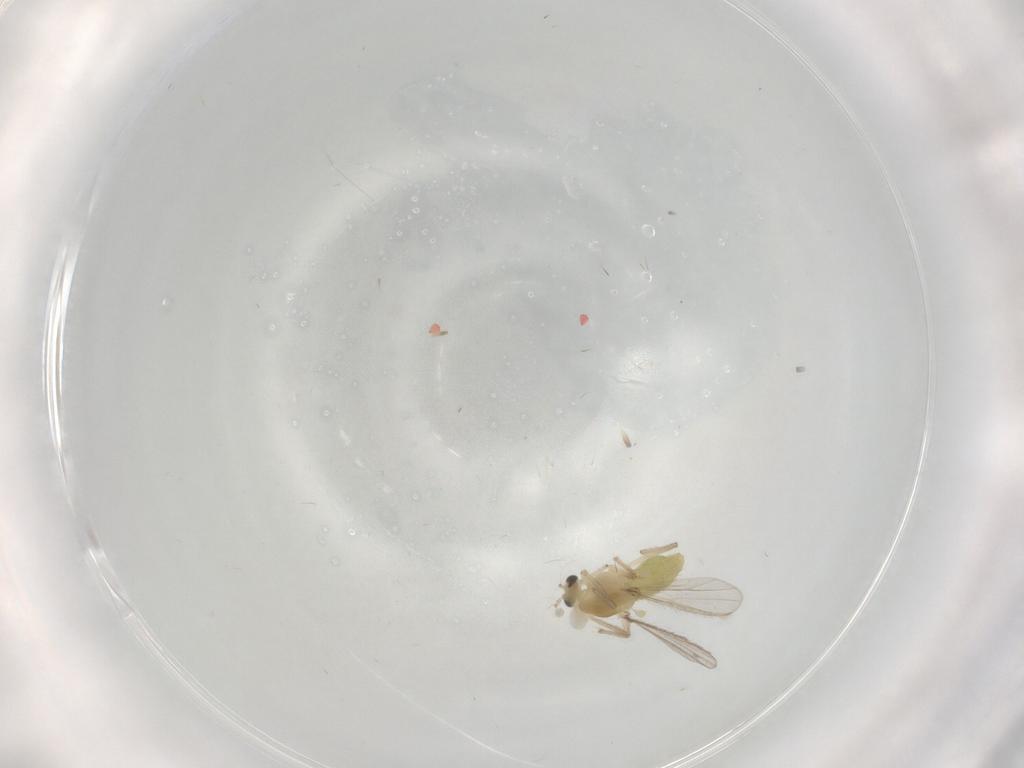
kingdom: Animalia
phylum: Arthropoda
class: Insecta
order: Diptera
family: Chironomidae
